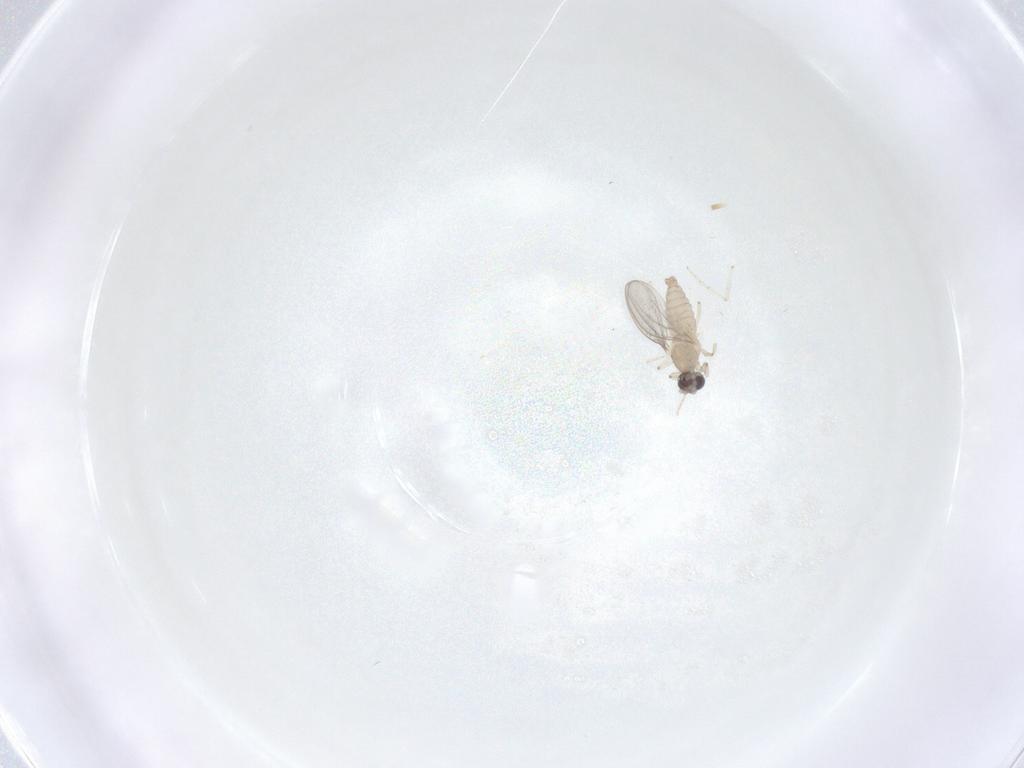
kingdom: Animalia
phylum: Arthropoda
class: Insecta
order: Diptera
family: Cecidomyiidae
